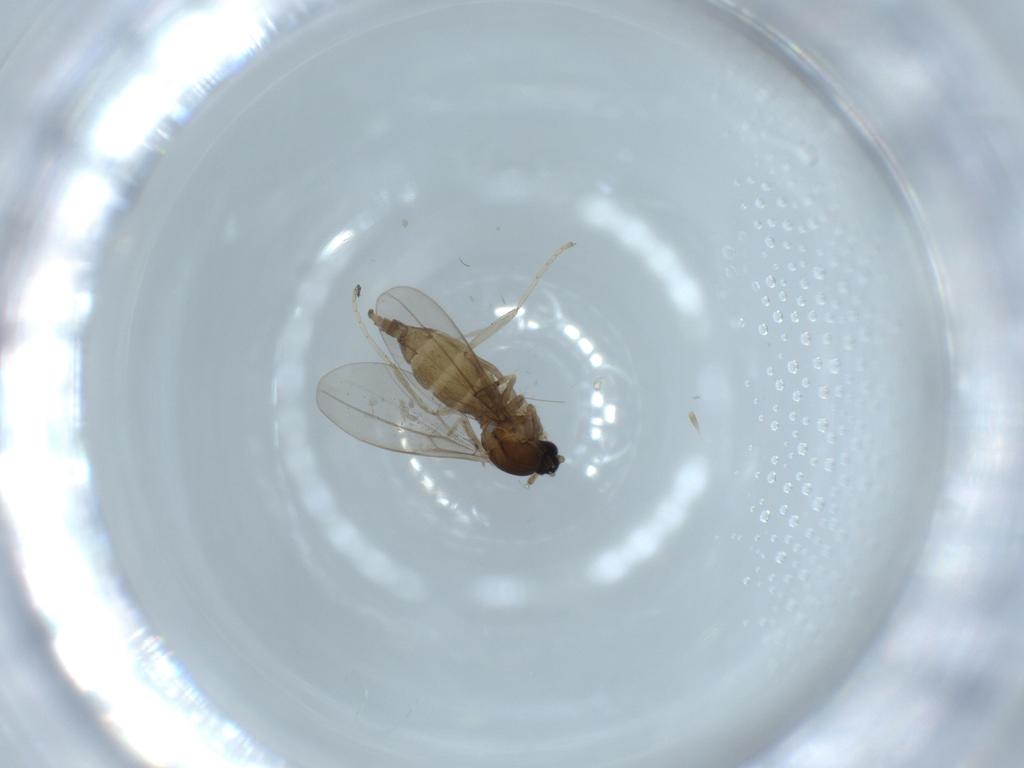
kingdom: Animalia
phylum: Arthropoda
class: Insecta
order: Diptera
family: Cecidomyiidae
